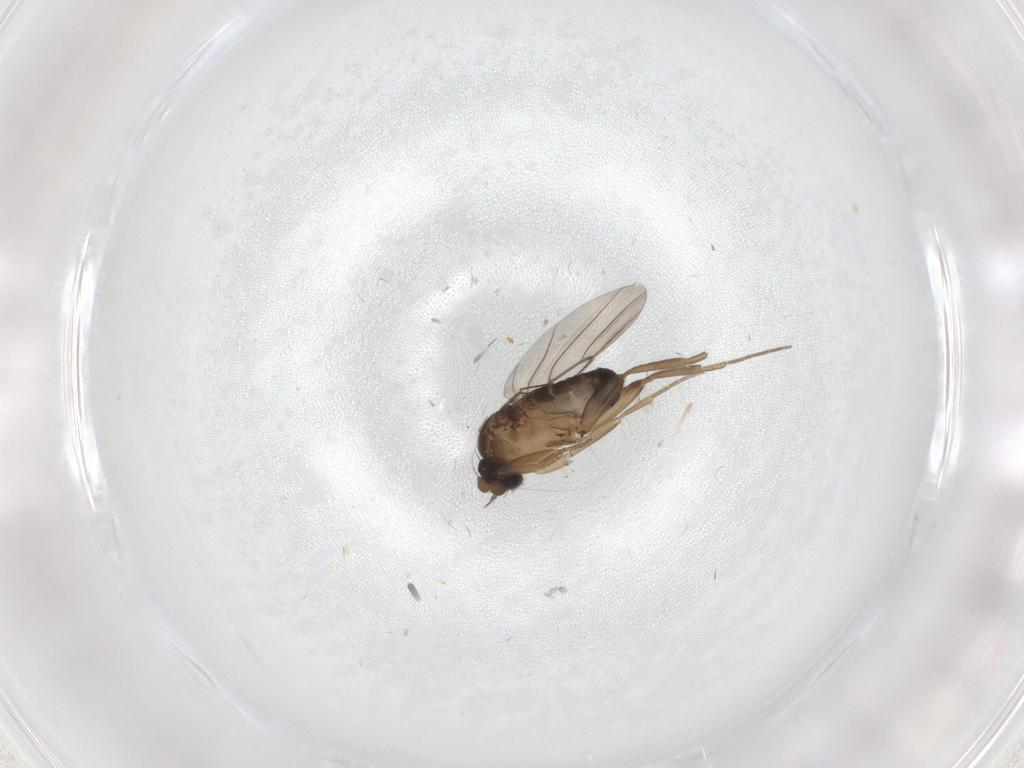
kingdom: Animalia
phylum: Arthropoda
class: Insecta
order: Diptera
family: Phoridae
